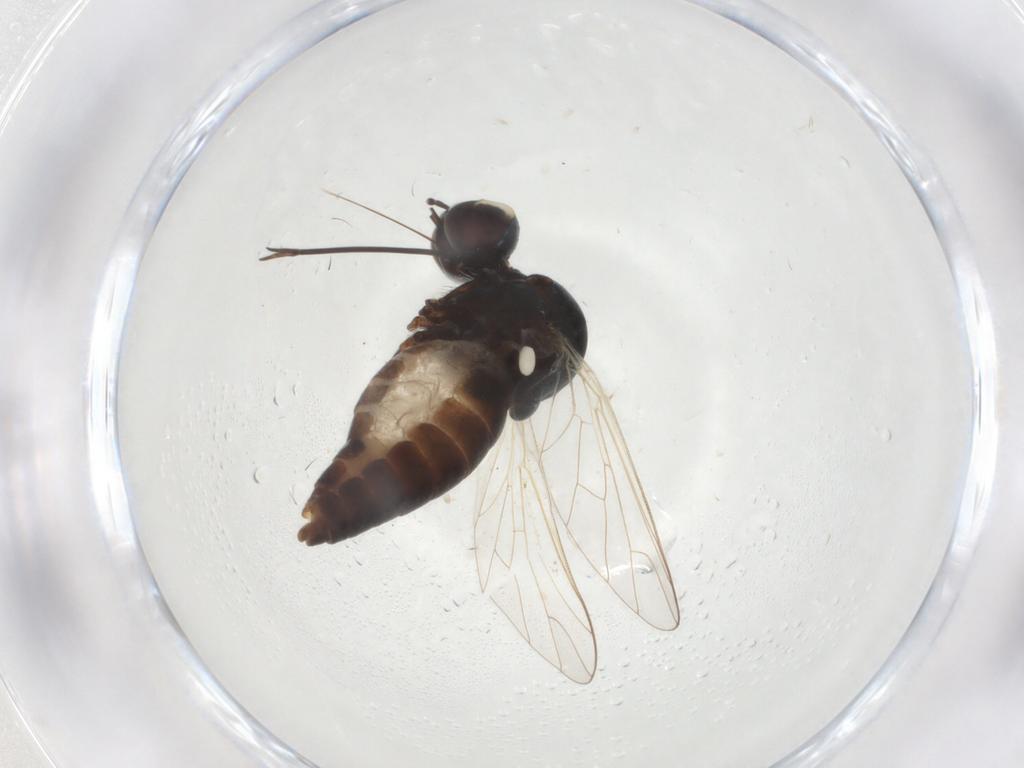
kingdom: Animalia
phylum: Arthropoda
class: Insecta
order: Diptera
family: Bombyliidae
